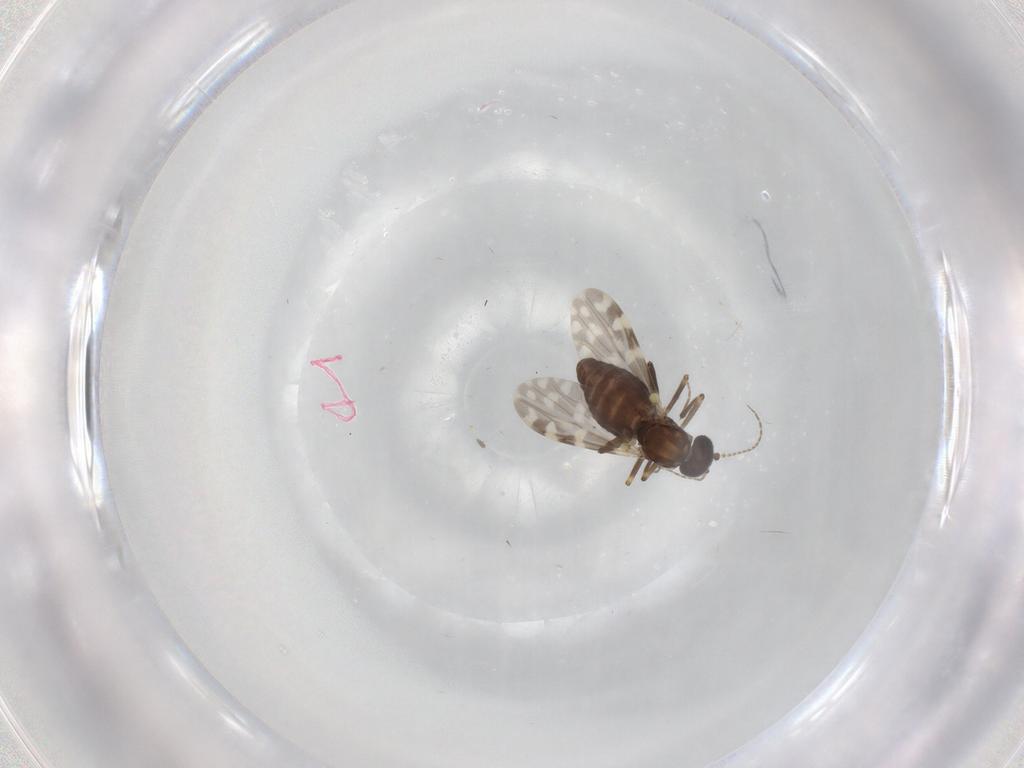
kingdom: Animalia
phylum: Arthropoda
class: Insecta
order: Diptera
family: Ceratopogonidae
